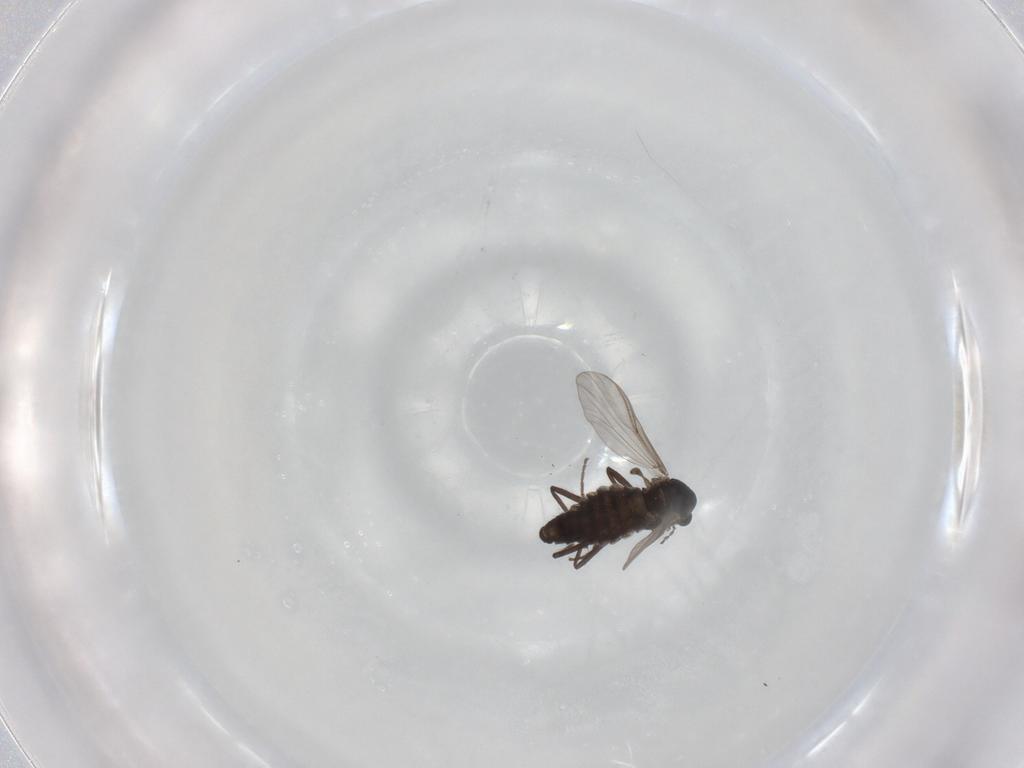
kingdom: Animalia
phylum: Arthropoda
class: Insecta
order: Diptera
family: Chironomidae
